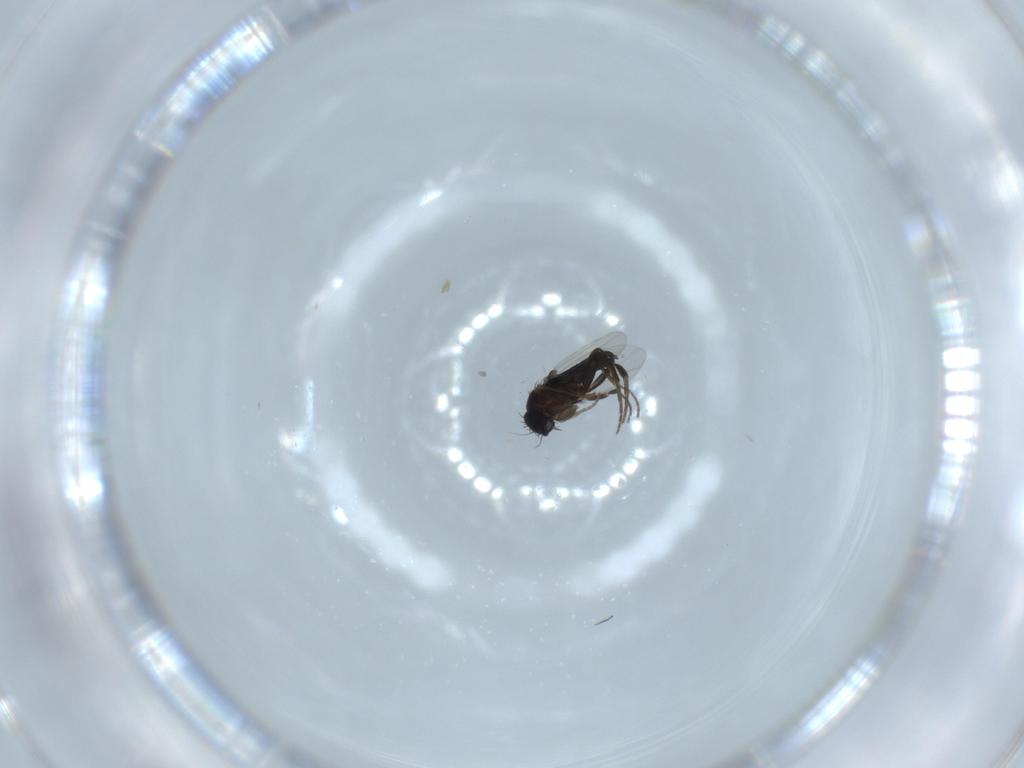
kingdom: Animalia
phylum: Arthropoda
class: Insecta
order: Diptera
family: Phoridae
